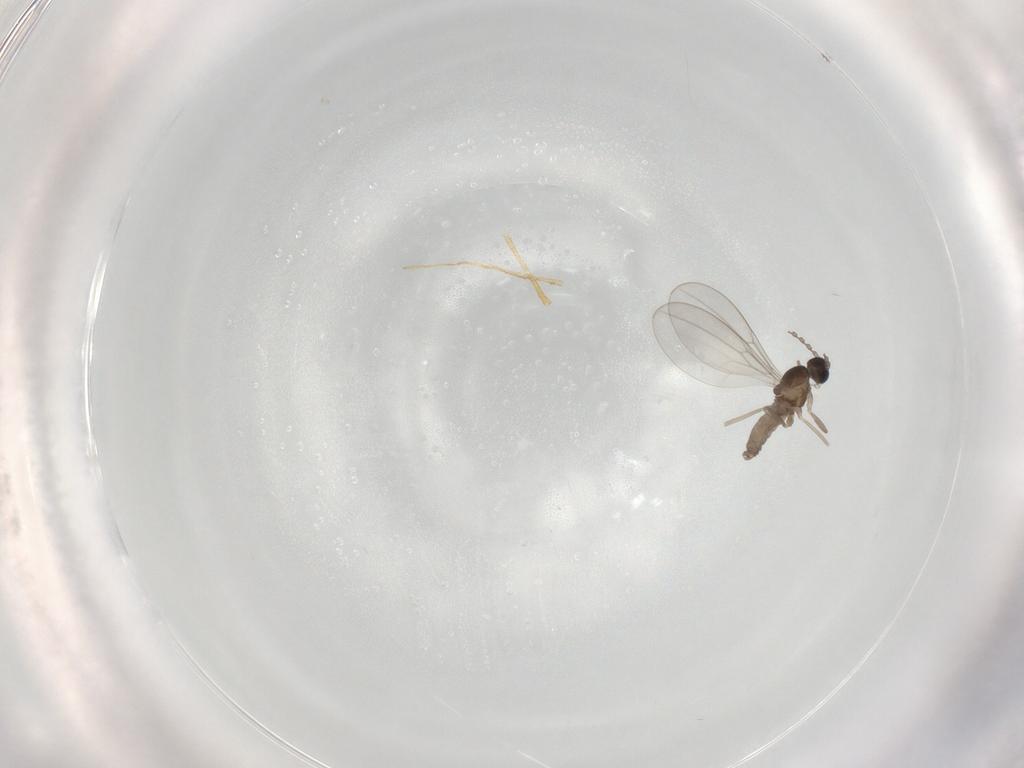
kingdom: Animalia
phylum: Arthropoda
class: Insecta
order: Diptera
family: Cecidomyiidae
